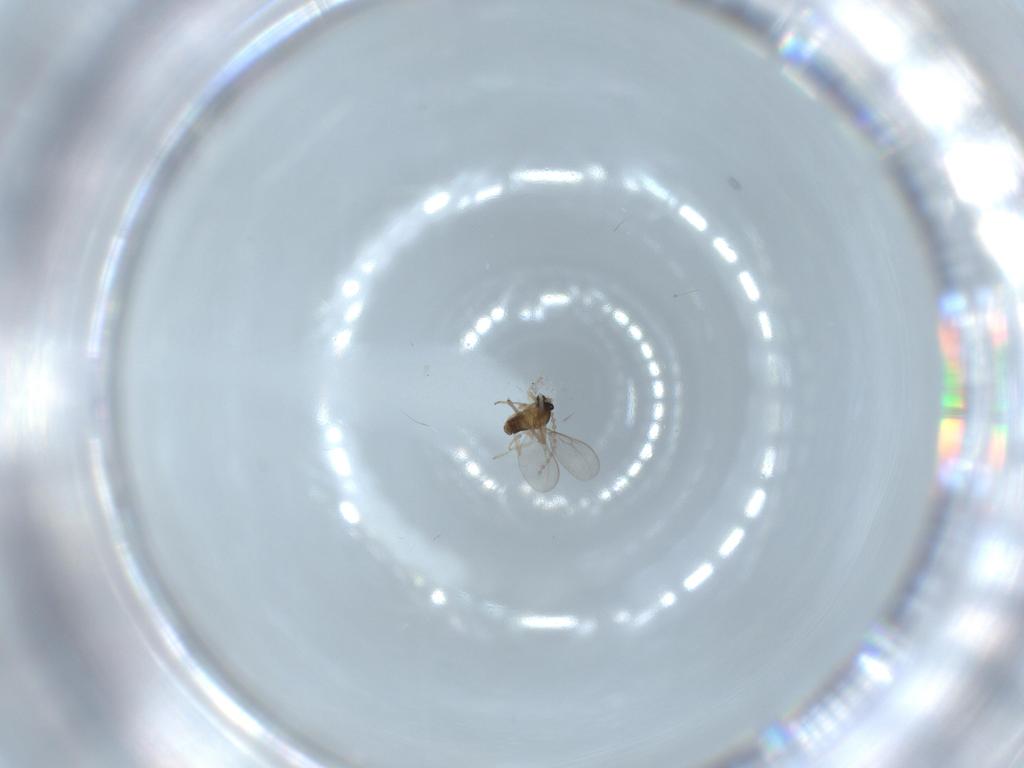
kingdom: Animalia
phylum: Arthropoda
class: Insecta
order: Diptera
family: Cecidomyiidae
